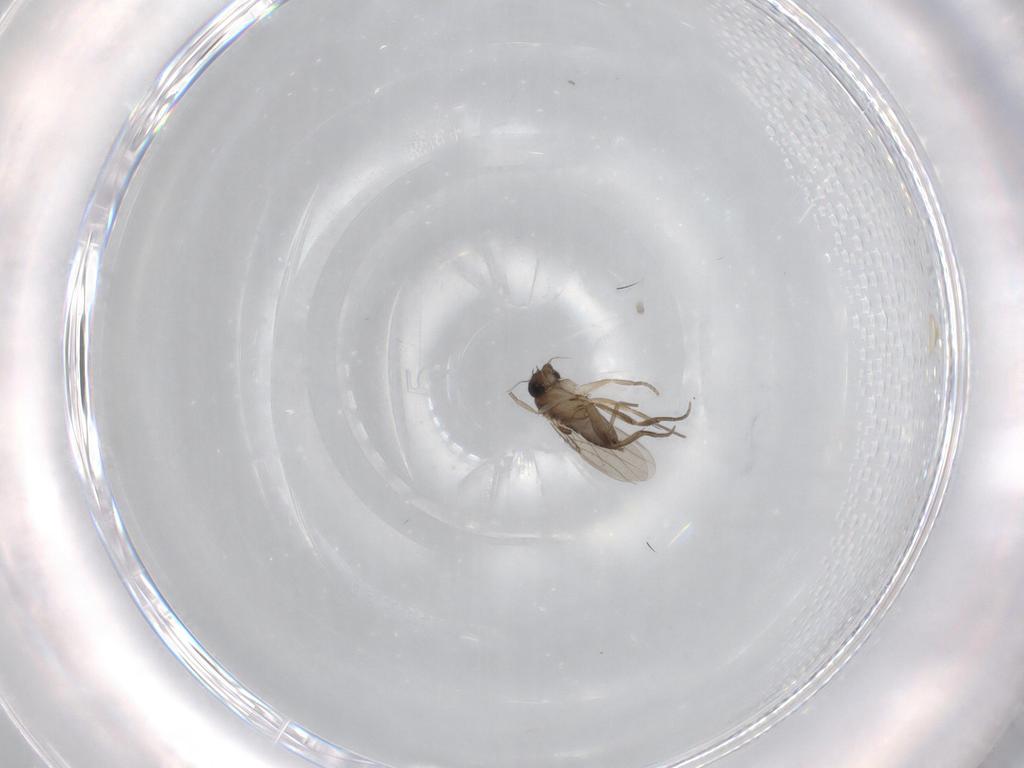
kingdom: Animalia
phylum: Arthropoda
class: Insecta
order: Diptera
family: Phoridae
